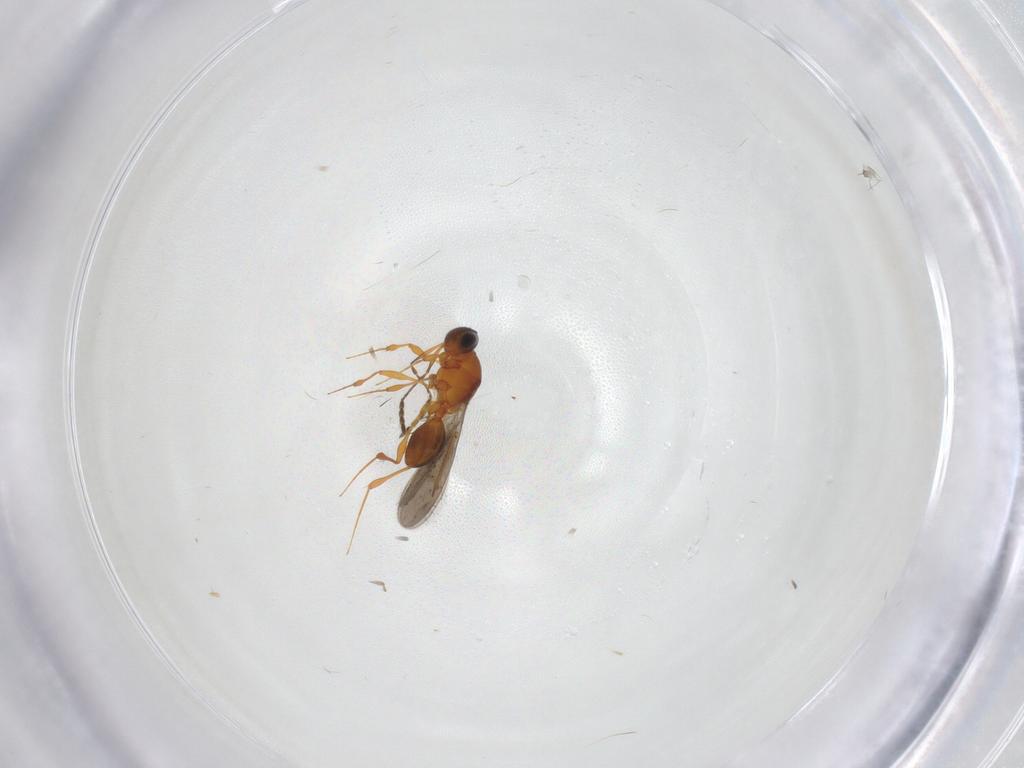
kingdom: Animalia
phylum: Arthropoda
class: Insecta
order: Hymenoptera
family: Platygastridae
